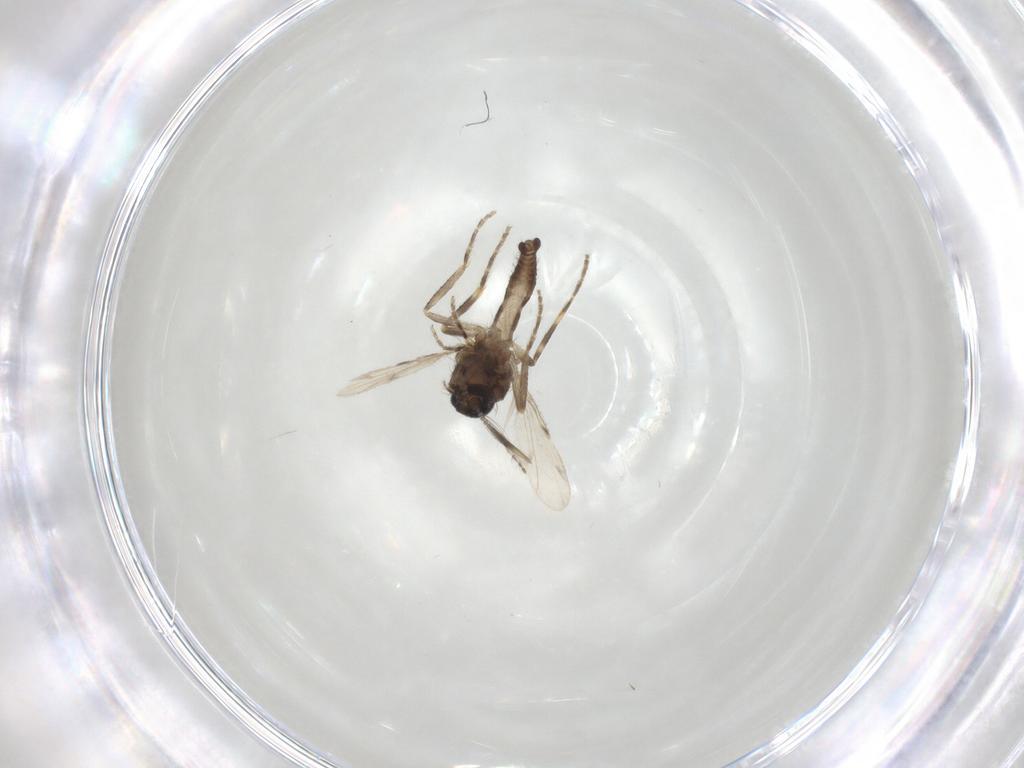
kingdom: Animalia
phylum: Arthropoda
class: Insecta
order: Diptera
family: Ceratopogonidae
